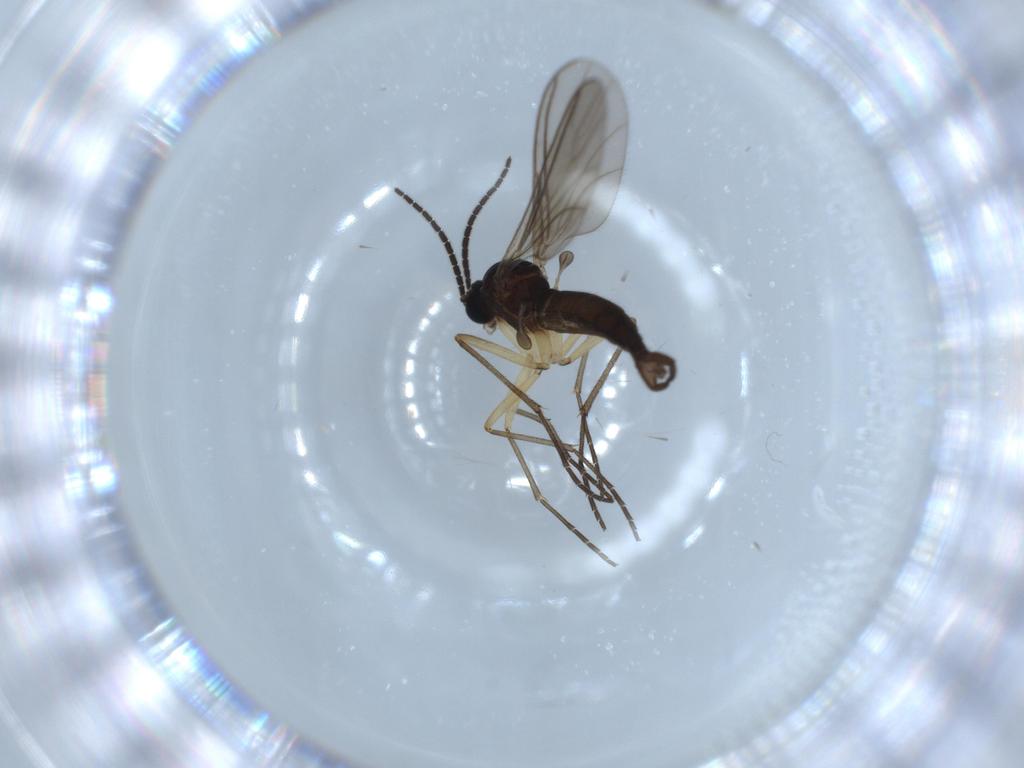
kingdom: Animalia
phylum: Arthropoda
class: Insecta
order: Diptera
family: Sciaridae
